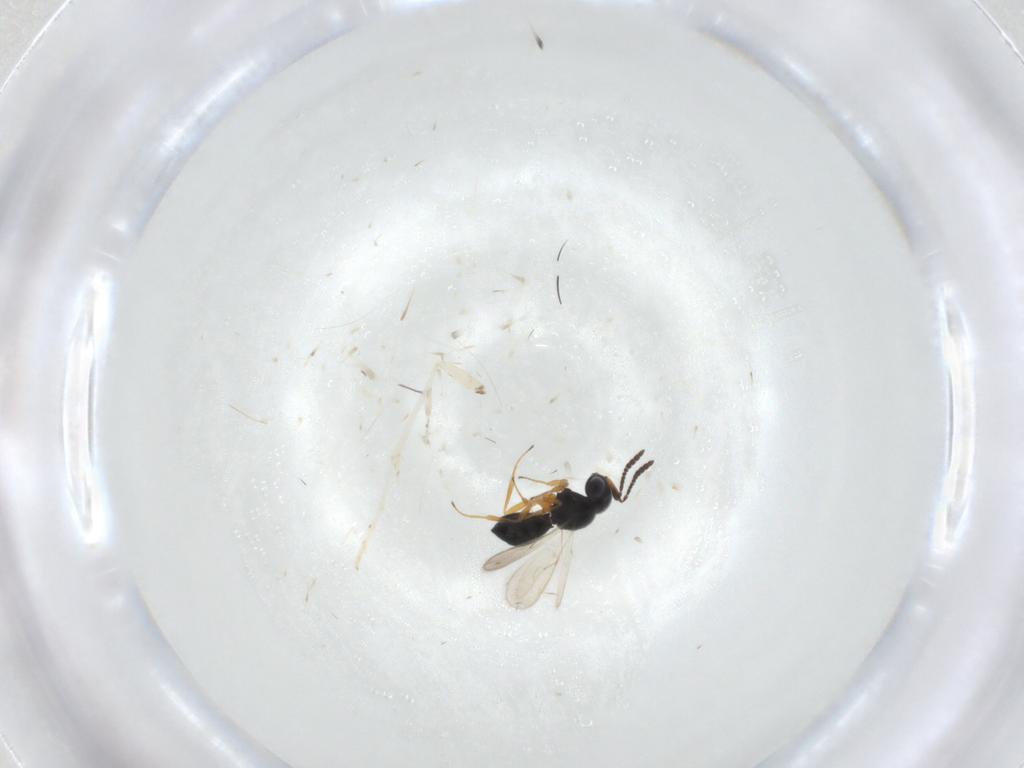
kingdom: Animalia
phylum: Arthropoda
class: Insecta
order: Hymenoptera
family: Scelionidae
